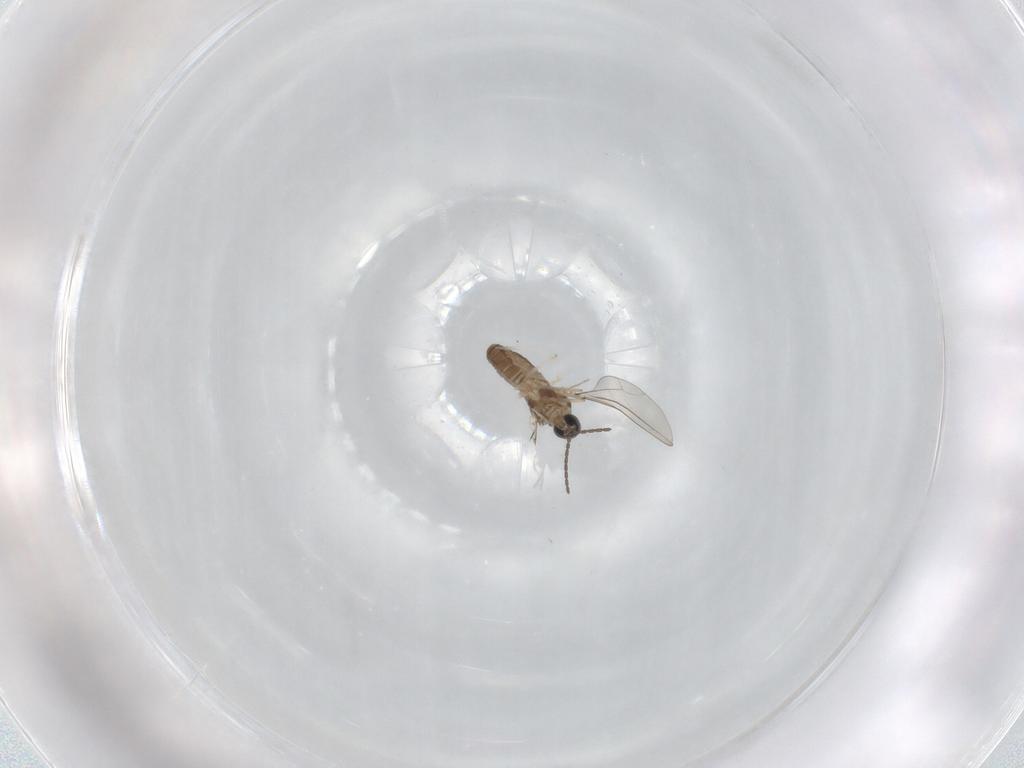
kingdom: Animalia
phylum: Arthropoda
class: Insecta
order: Diptera
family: Cecidomyiidae
